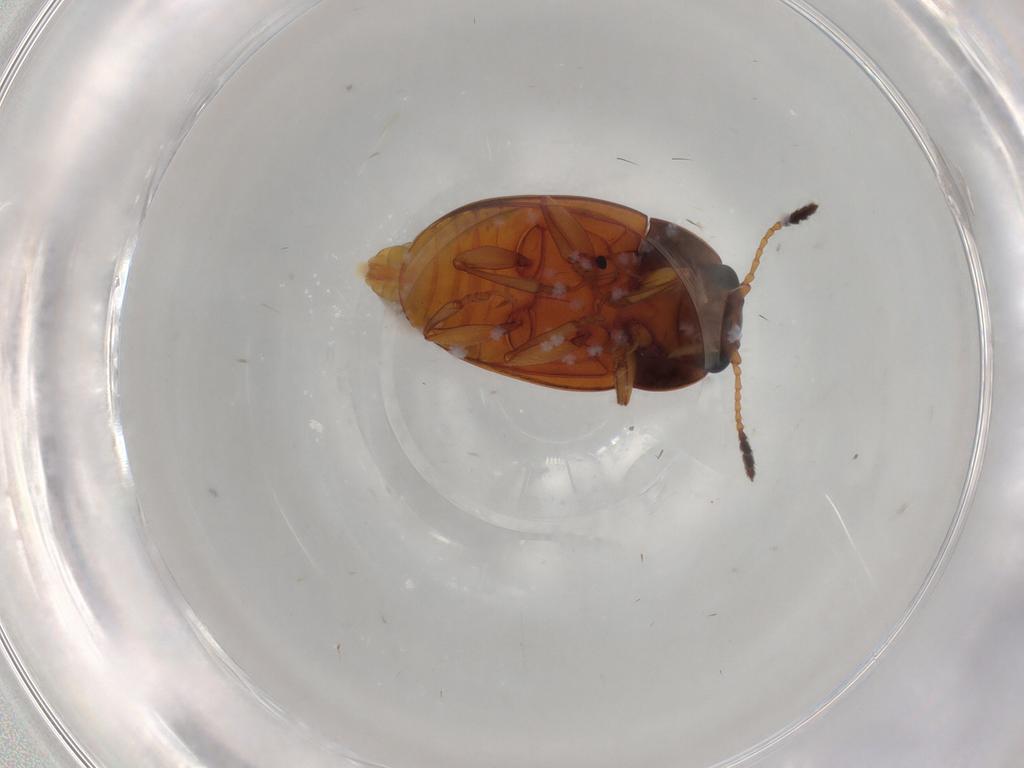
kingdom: Animalia
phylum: Arthropoda
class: Insecta
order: Coleoptera
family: Erotylidae
